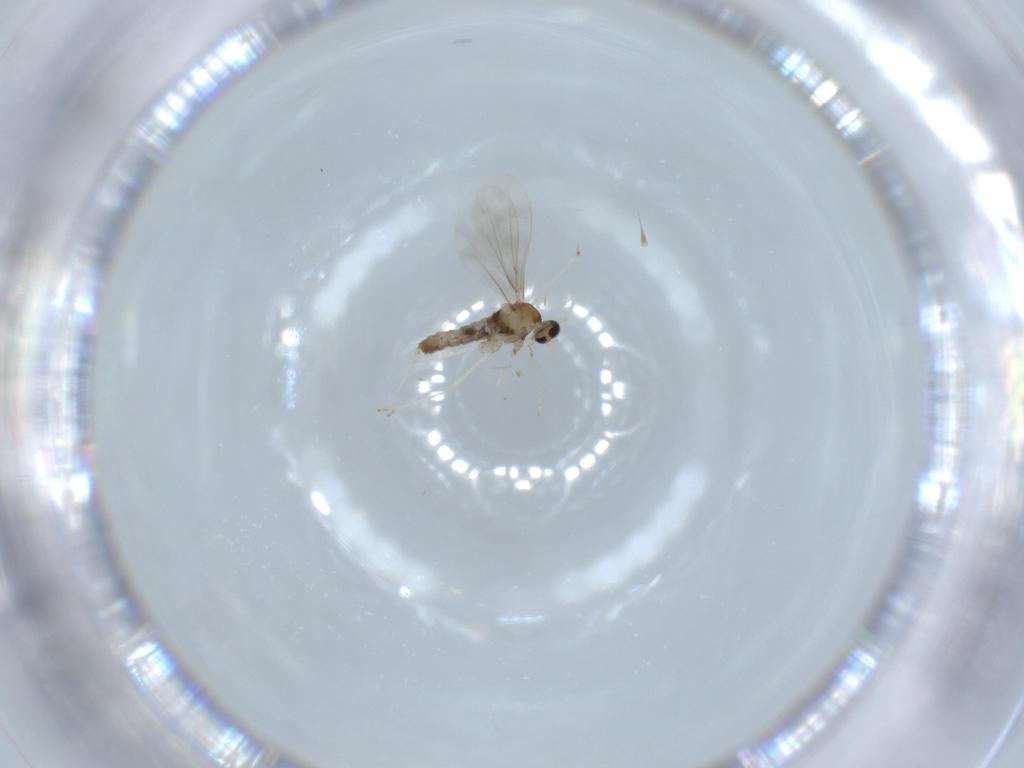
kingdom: Animalia
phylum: Arthropoda
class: Insecta
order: Diptera
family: Cecidomyiidae
